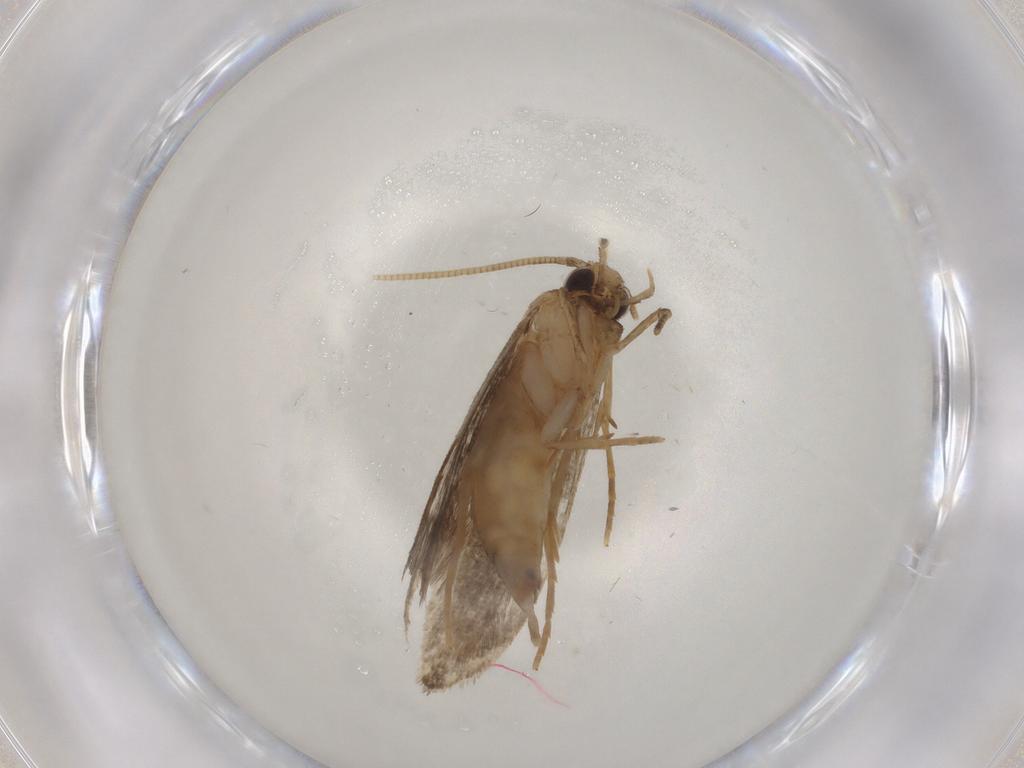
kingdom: Animalia
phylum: Arthropoda
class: Insecta
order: Lepidoptera
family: Tineidae
